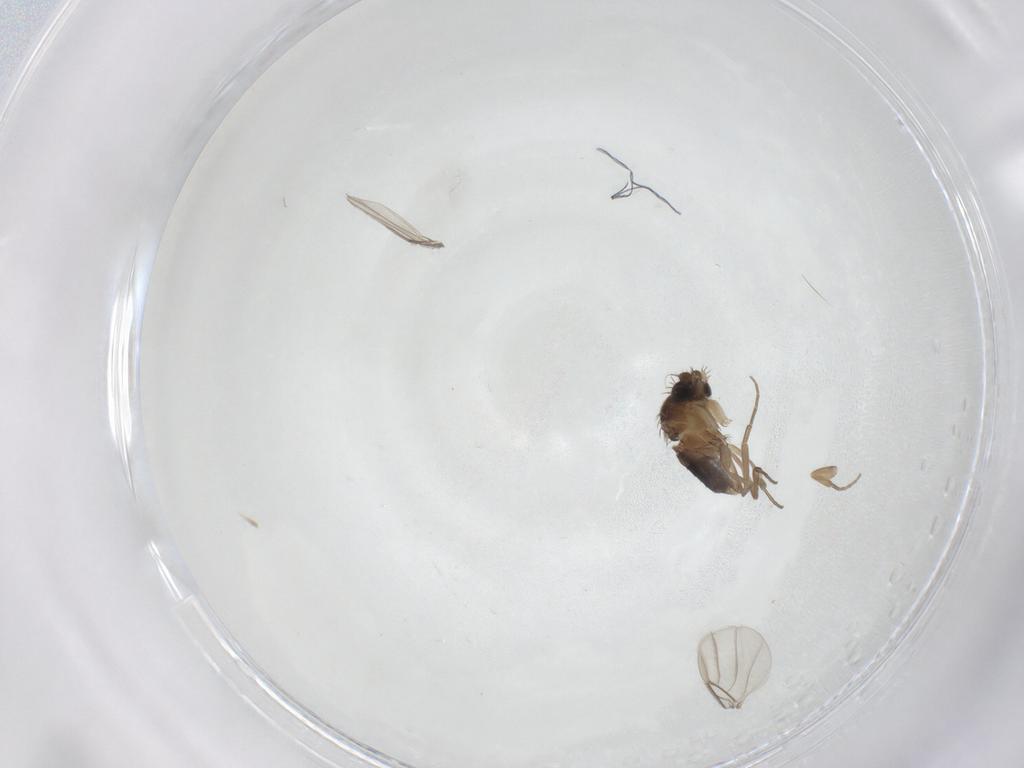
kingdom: Animalia
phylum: Arthropoda
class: Insecta
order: Diptera
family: Phoridae
